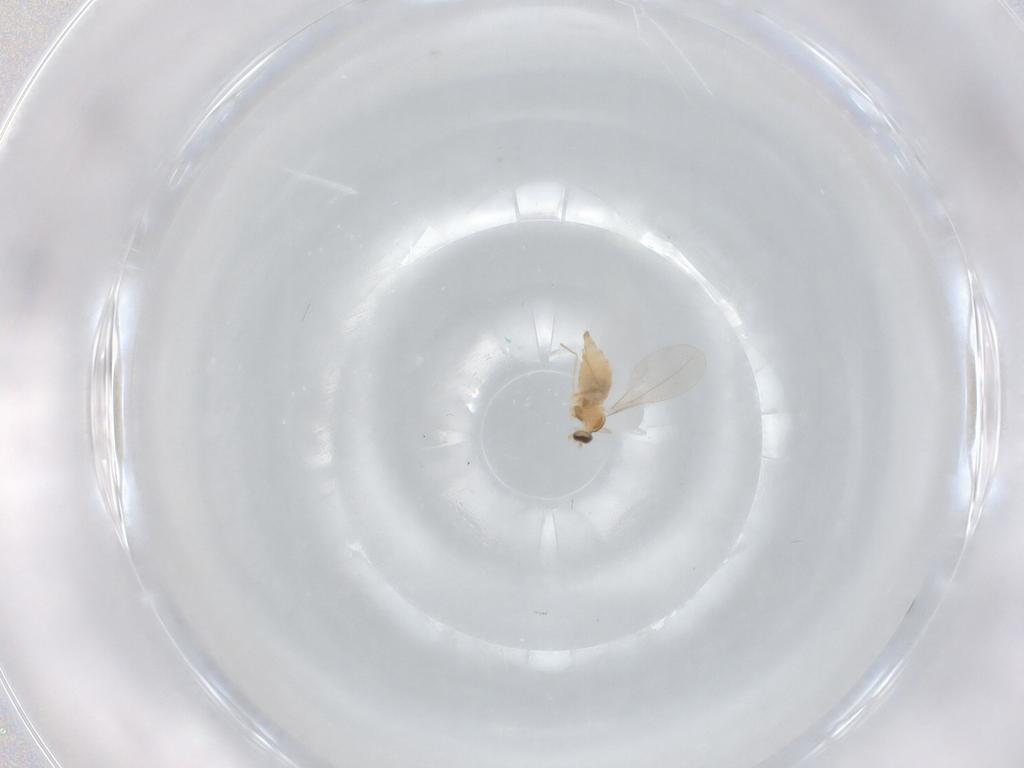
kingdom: Animalia
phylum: Arthropoda
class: Insecta
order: Diptera
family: Cecidomyiidae
